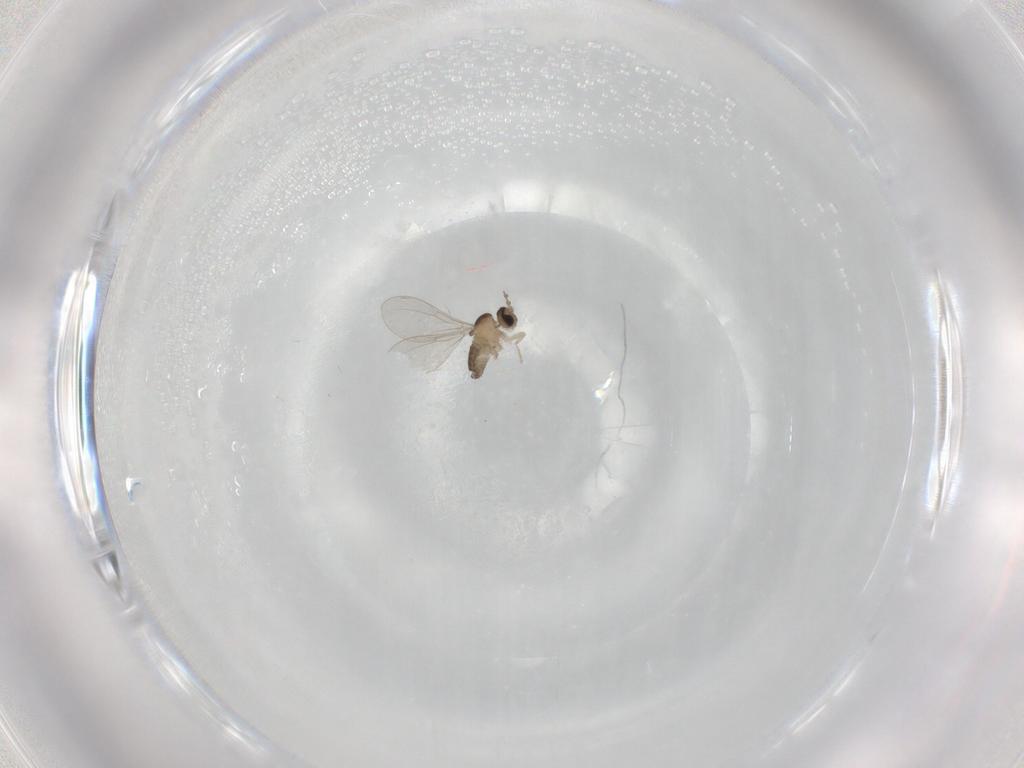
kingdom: Animalia
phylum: Arthropoda
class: Insecta
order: Diptera
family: Cecidomyiidae
